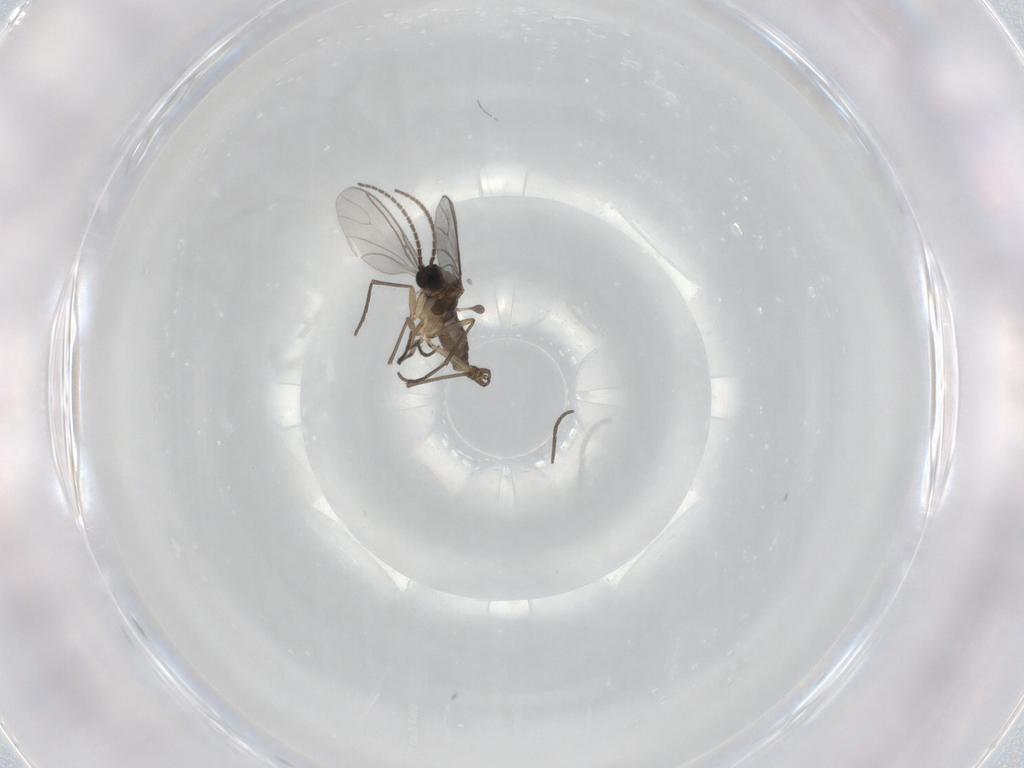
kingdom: Animalia
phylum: Arthropoda
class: Insecta
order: Diptera
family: Sciaridae
